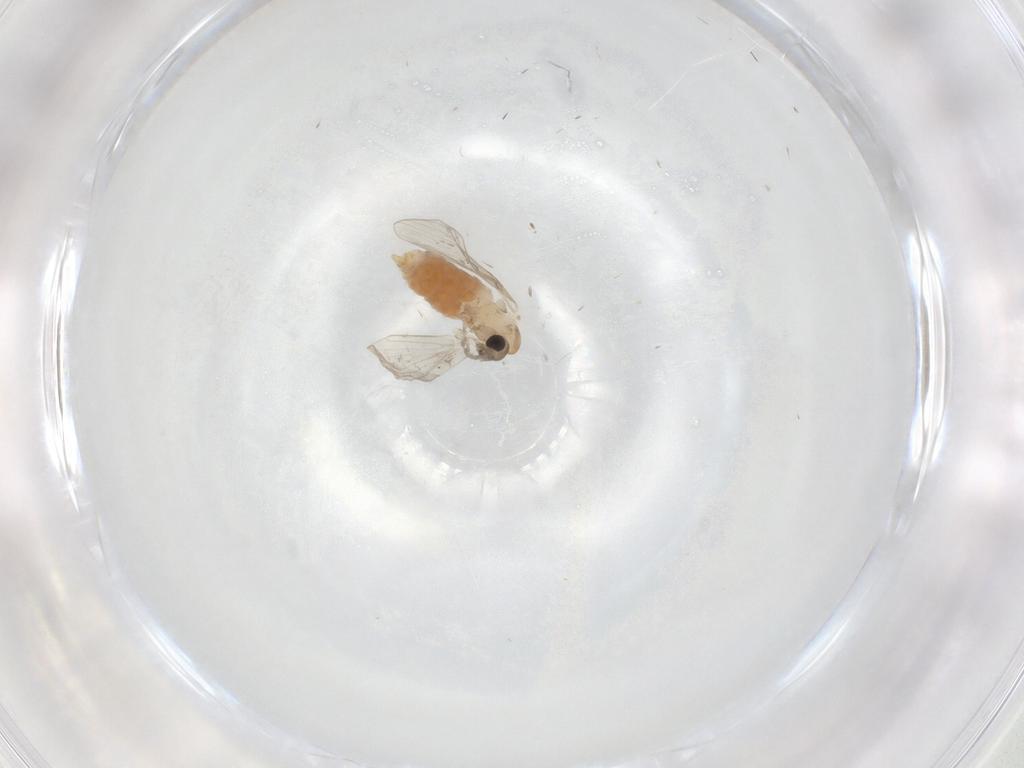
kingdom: Animalia
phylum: Arthropoda
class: Insecta
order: Diptera
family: Psychodidae
